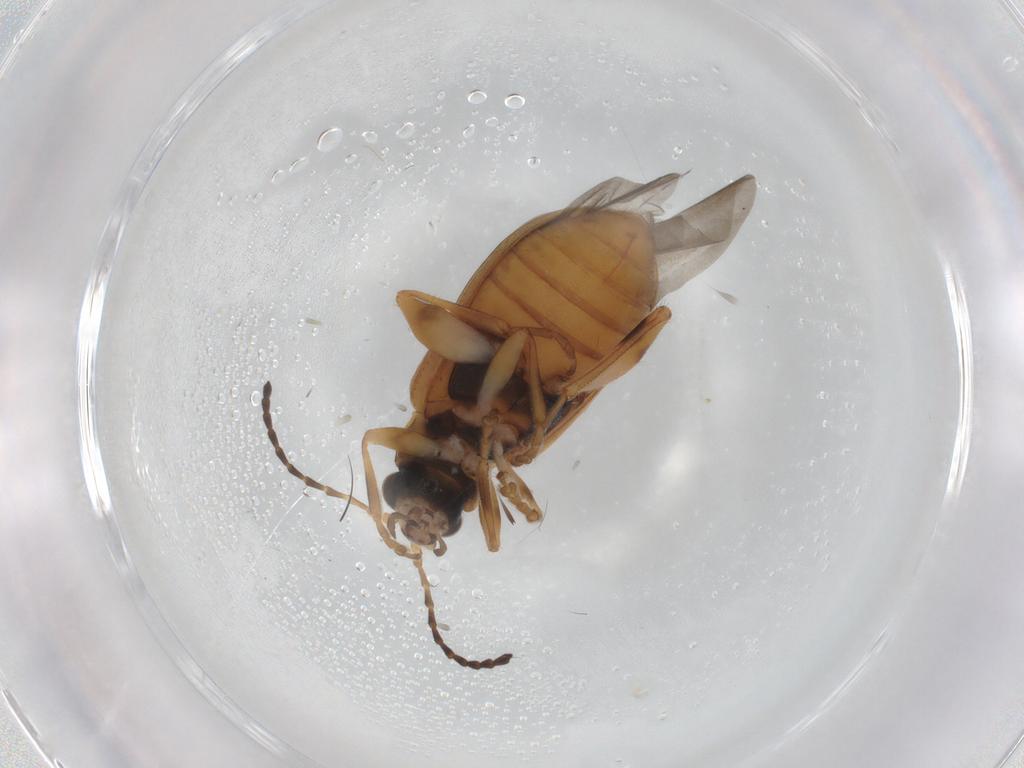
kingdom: Animalia
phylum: Arthropoda
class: Insecta
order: Coleoptera
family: Chrysomelidae
